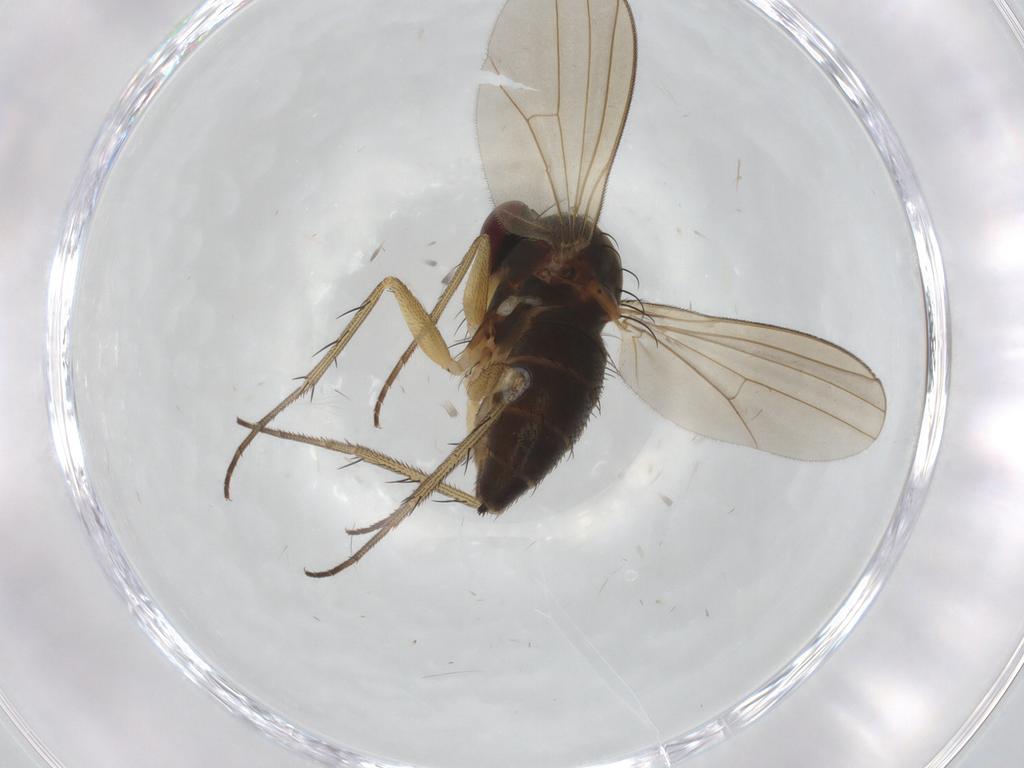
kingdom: Animalia
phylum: Arthropoda
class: Insecta
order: Diptera
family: Dolichopodidae
